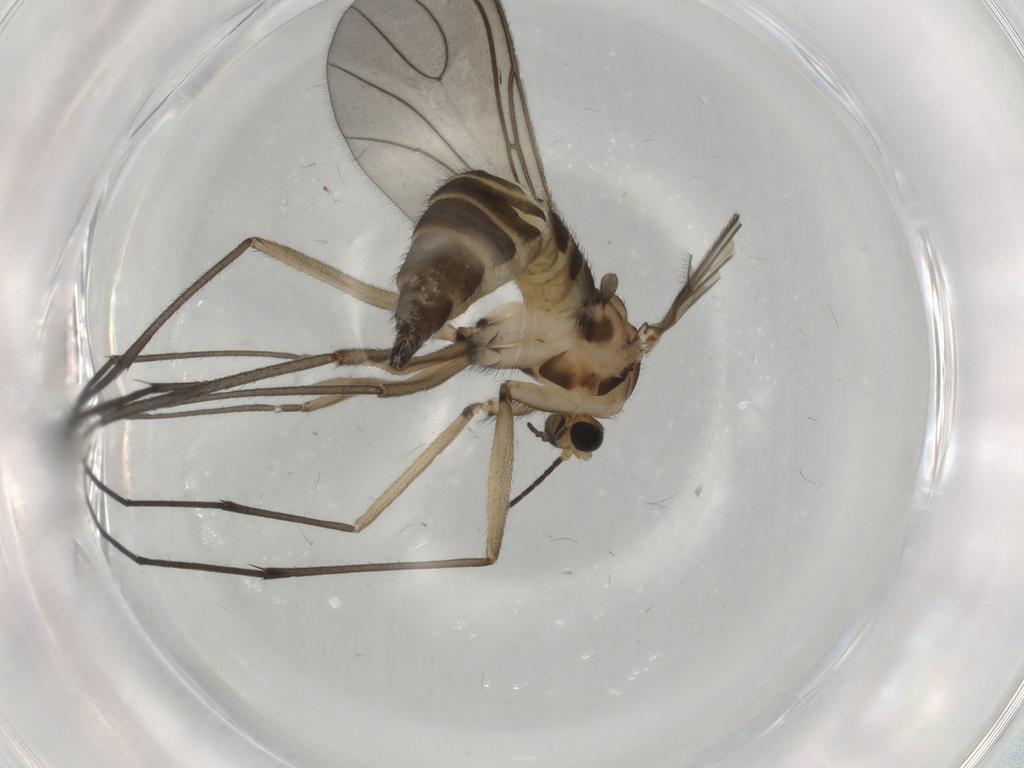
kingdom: Animalia
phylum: Arthropoda
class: Insecta
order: Diptera
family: Sciaridae
